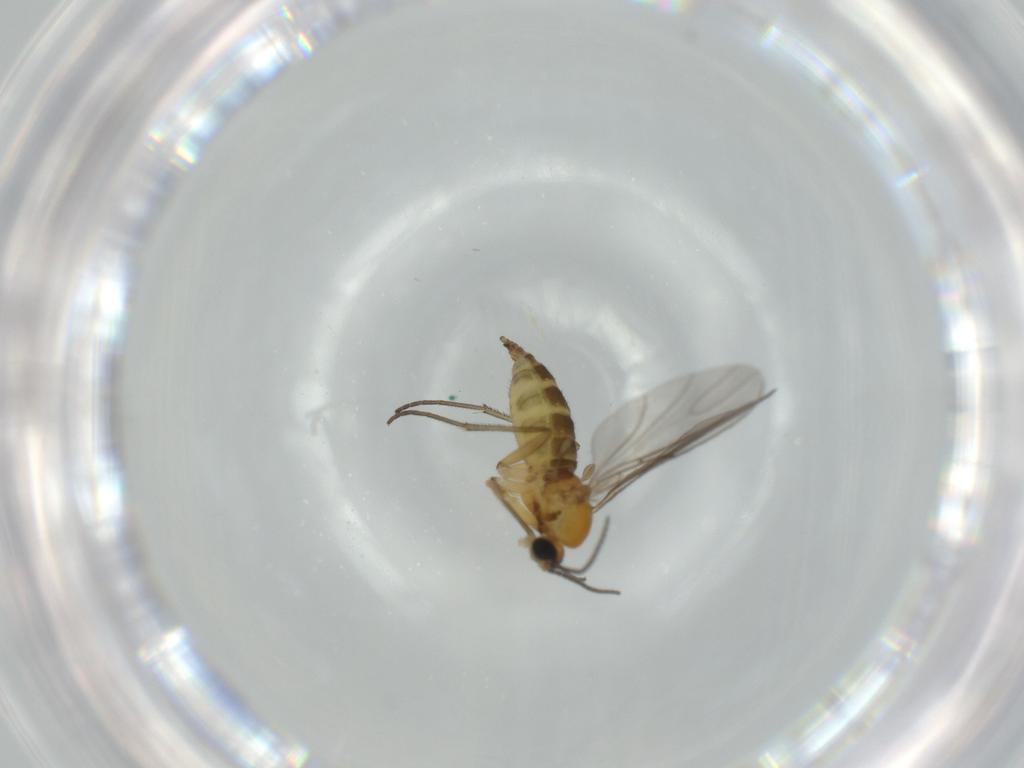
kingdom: Animalia
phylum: Arthropoda
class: Insecta
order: Diptera
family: Sciaridae
